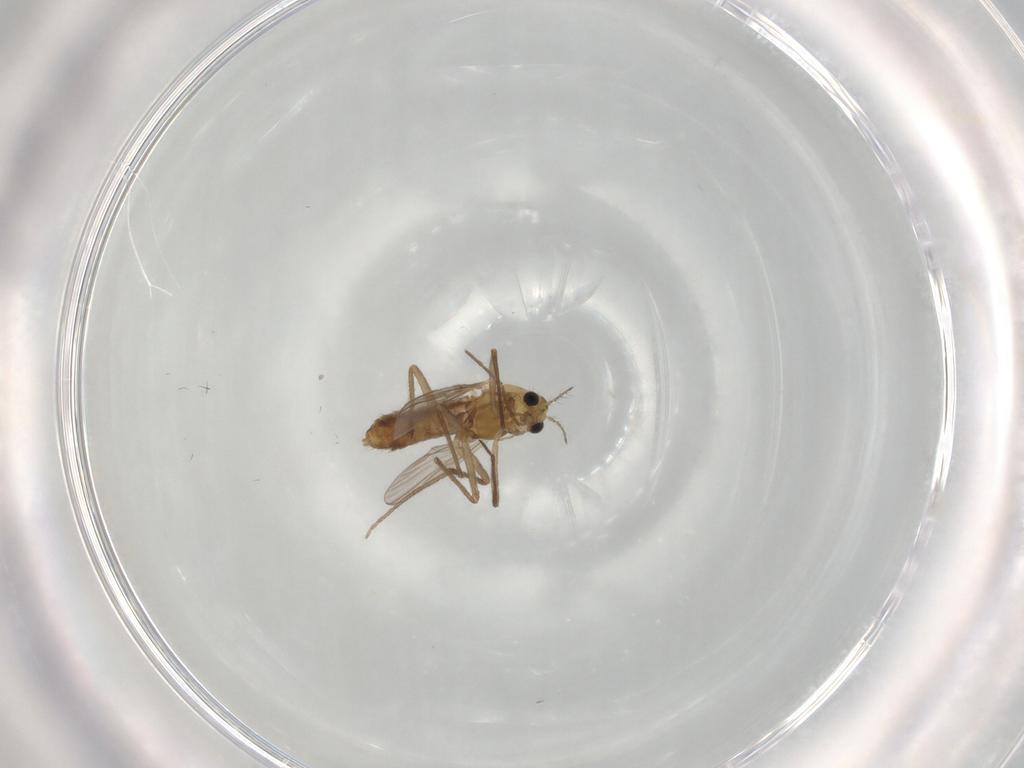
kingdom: Animalia
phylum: Arthropoda
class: Insecta
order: Diptera
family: Chironomidae
